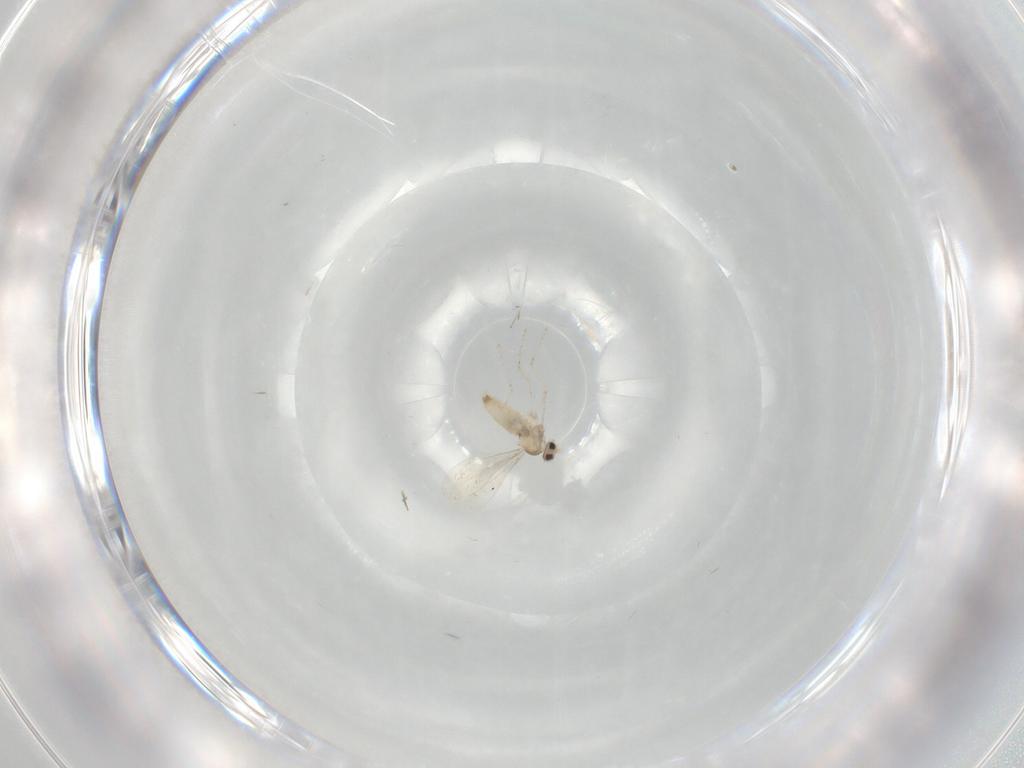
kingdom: Animalia
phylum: Arthropoda
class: Insecta
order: Diptera
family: Cecidomyiidae
